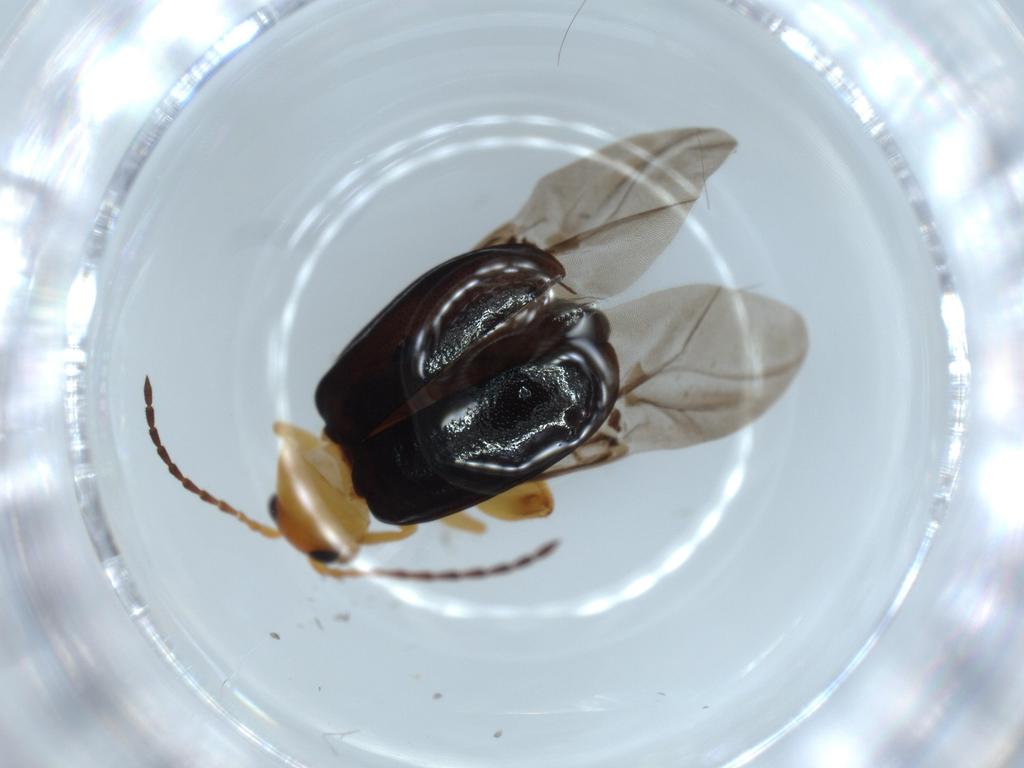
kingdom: Animalia
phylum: Arthropoda
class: Insecta
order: Coleoptera
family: Chrysomelidae
